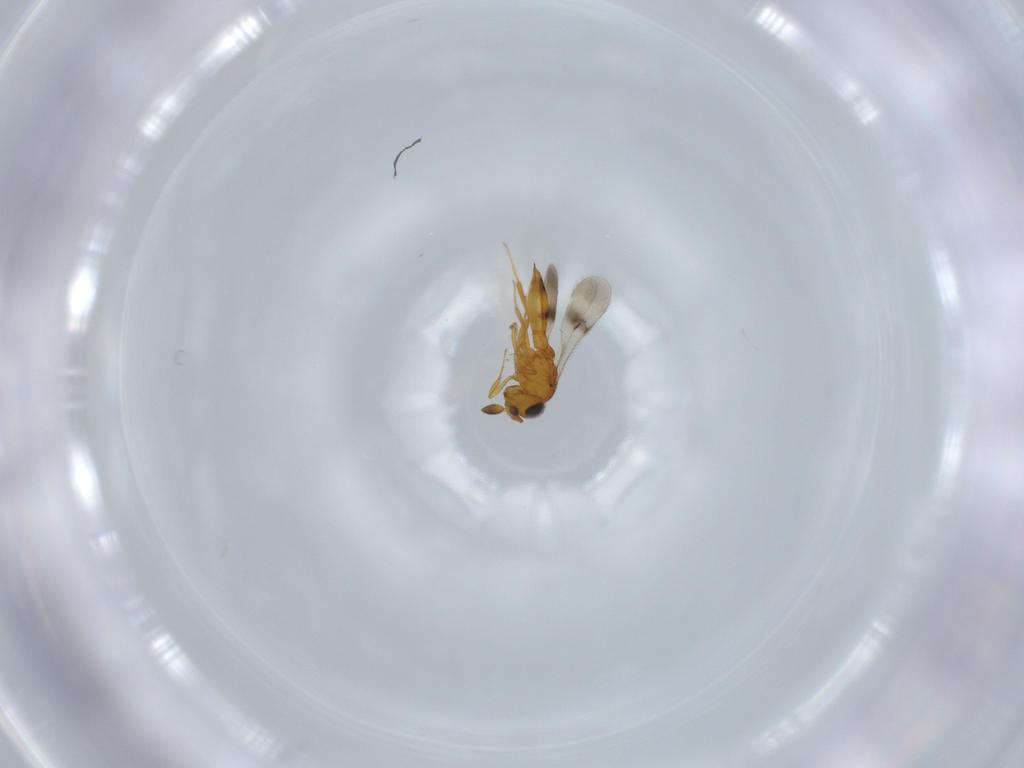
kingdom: Animalia
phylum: Arthropoda
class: Insecta
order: Hymenoptera
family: Scelionidae
